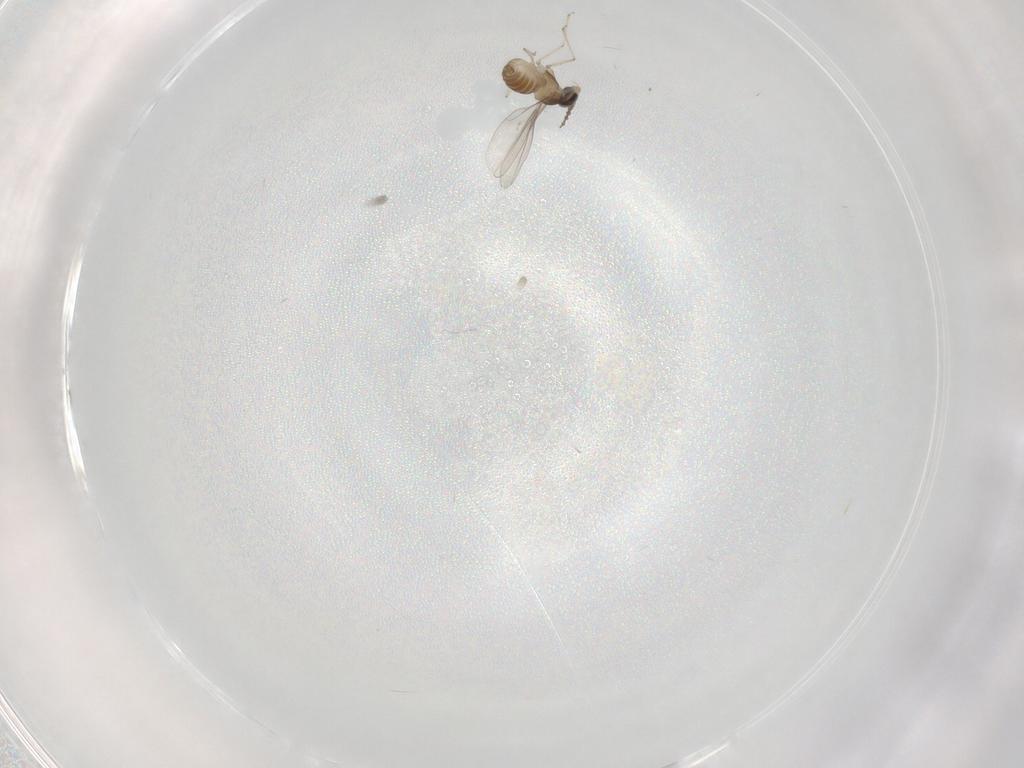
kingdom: Animalia
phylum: Arthropoda
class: Insecta
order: Diptera
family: Cecidomyiidae
